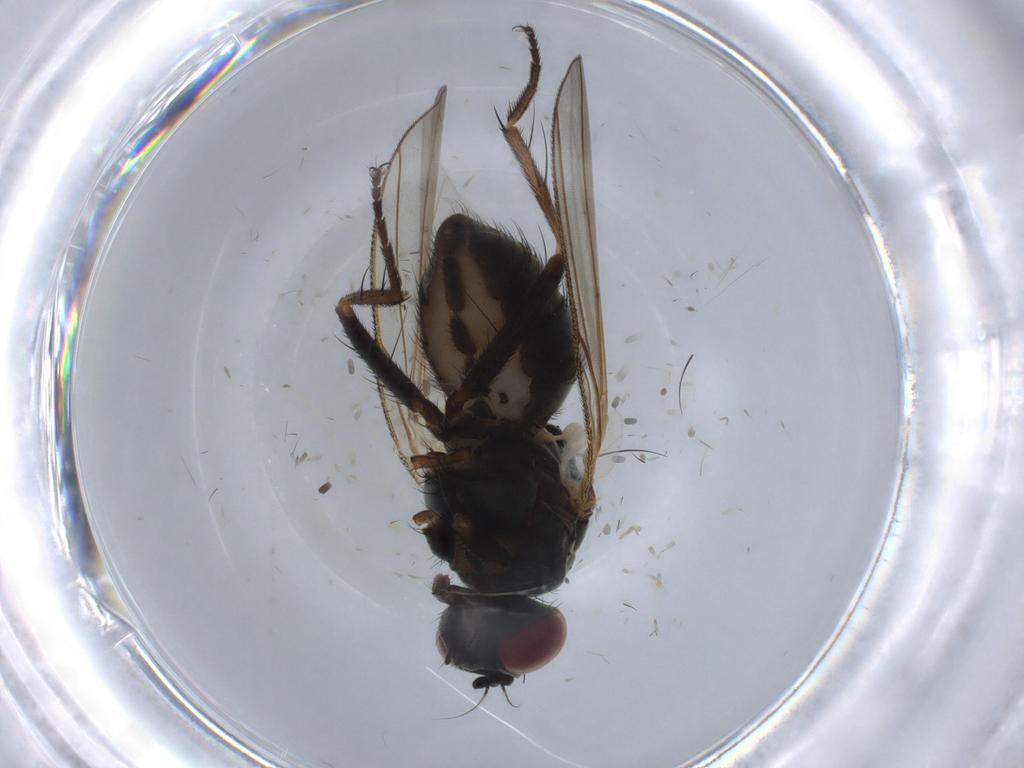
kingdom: Animalia
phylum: Arthropoda
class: Insecta
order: Diptera
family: Muscidae
